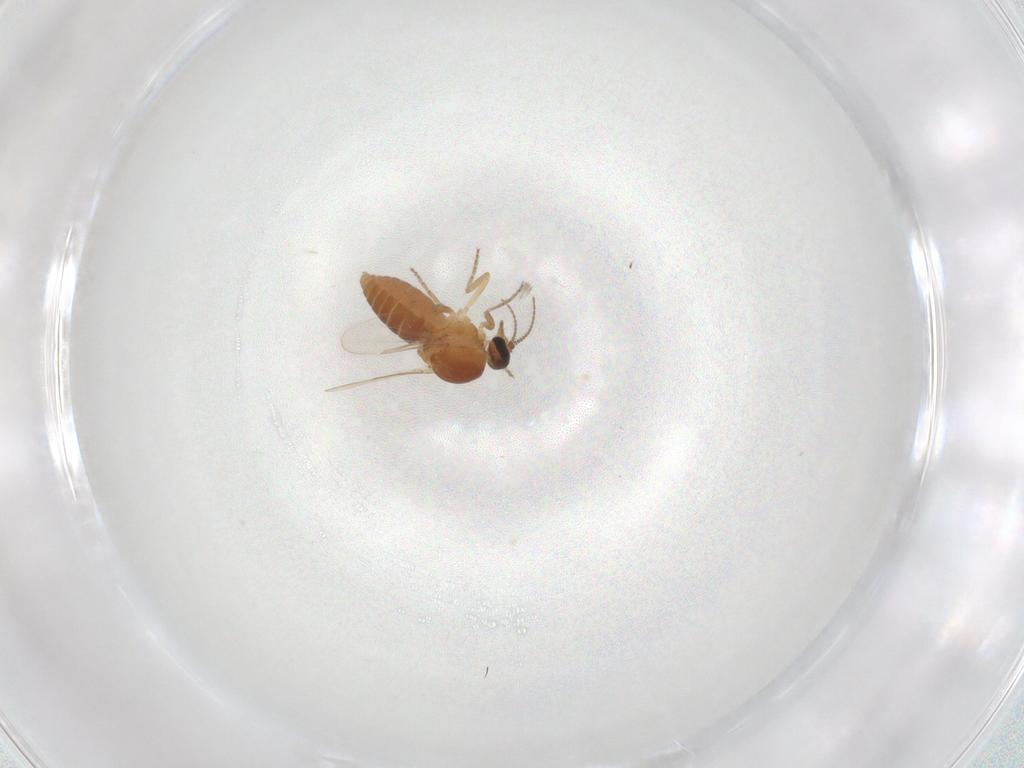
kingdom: Animalia
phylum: Arthropoda
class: Insecta
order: Diptera
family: Ceratopogonidae
